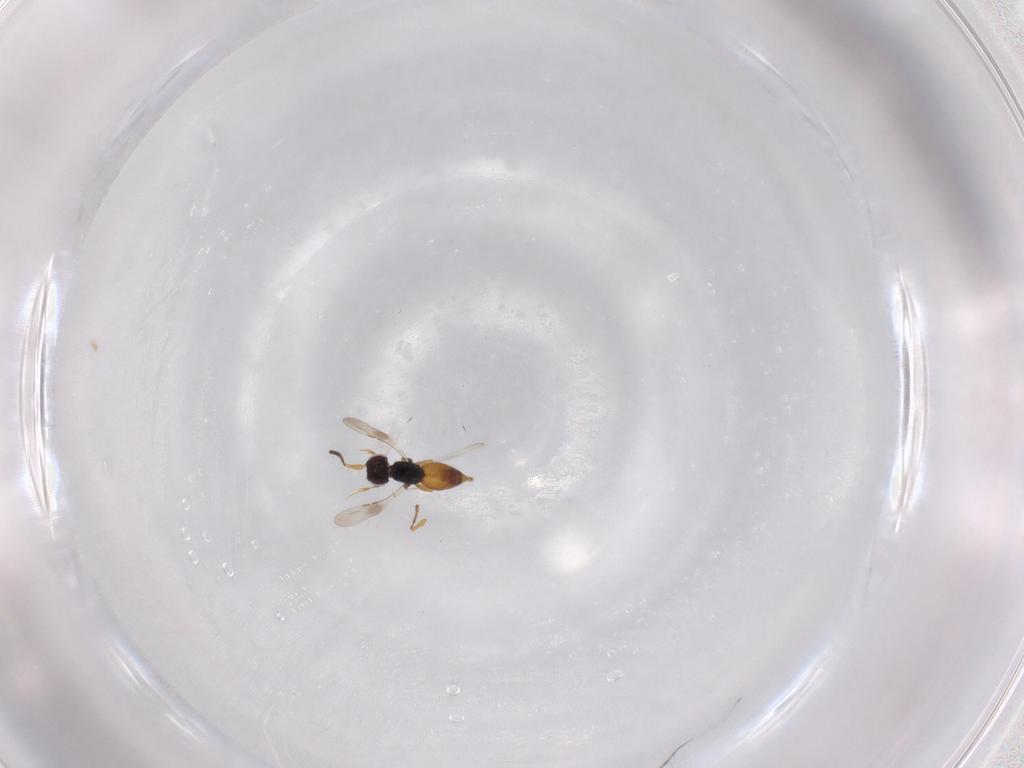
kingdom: Animalia
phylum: Arthropoda
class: Insecta
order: Hymenoptera
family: Ceraphronidae
